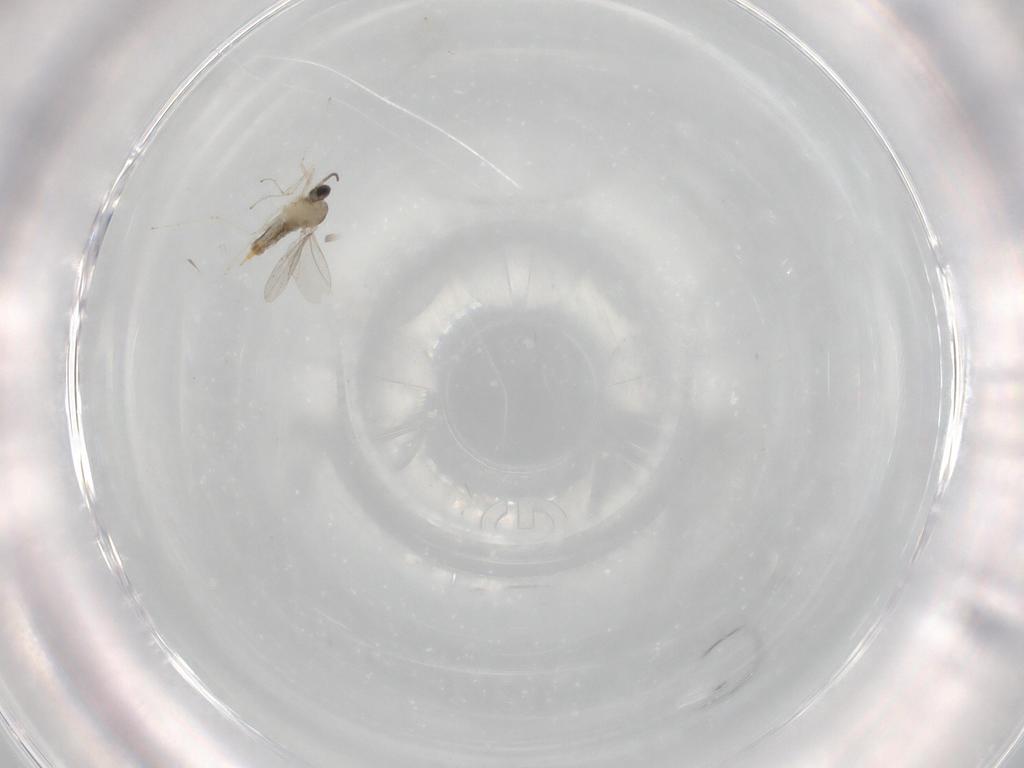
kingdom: Animalia
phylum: Arthropoda
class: Insecta
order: Diptera
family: Cecidomyiidae
